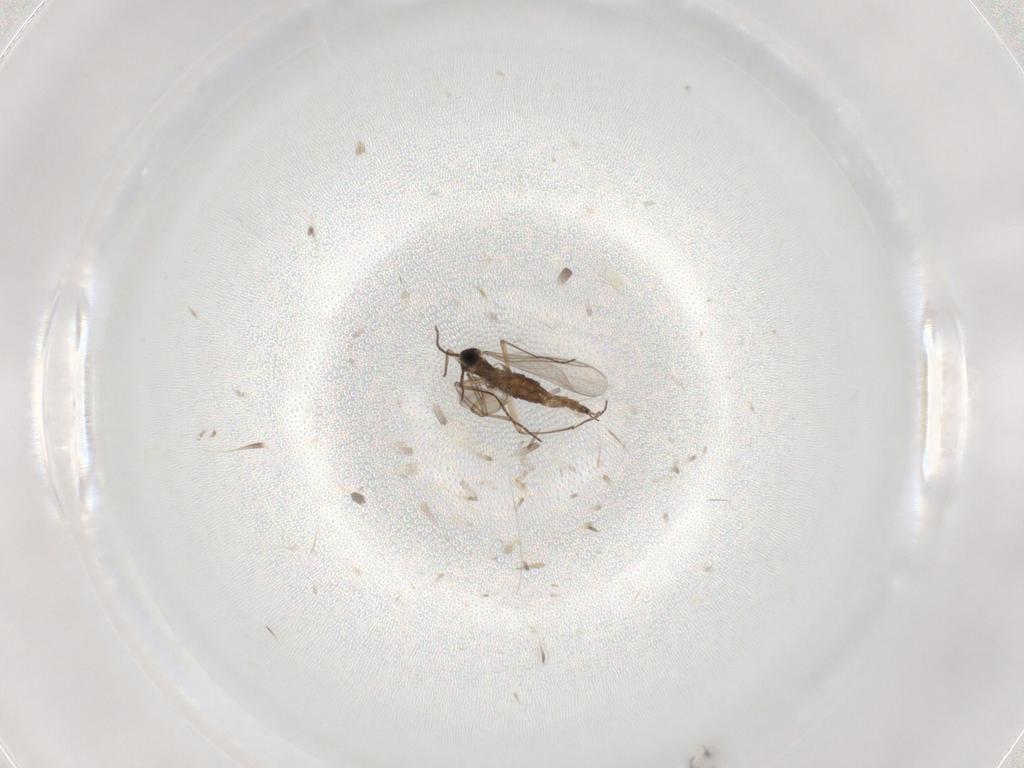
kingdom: Animalia
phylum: Arthropoda
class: Insecta
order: Diptera
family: Sciaridae
